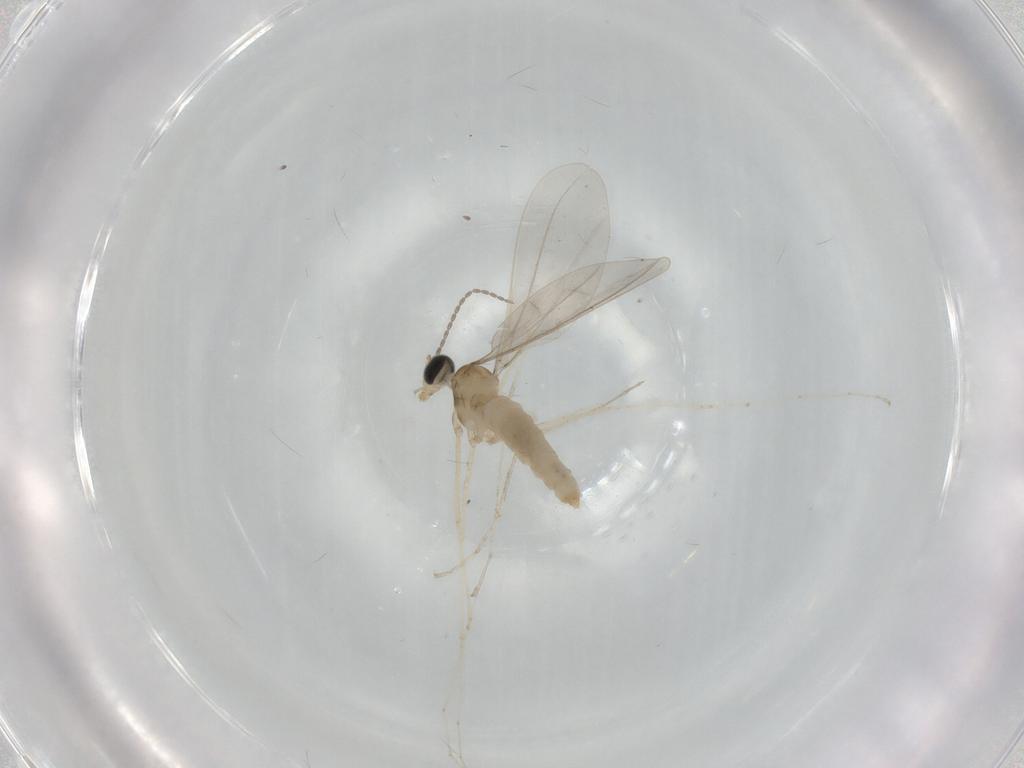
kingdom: Animalia
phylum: Arthropoda
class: Insecta
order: Diptera
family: Cecidomyiidae
